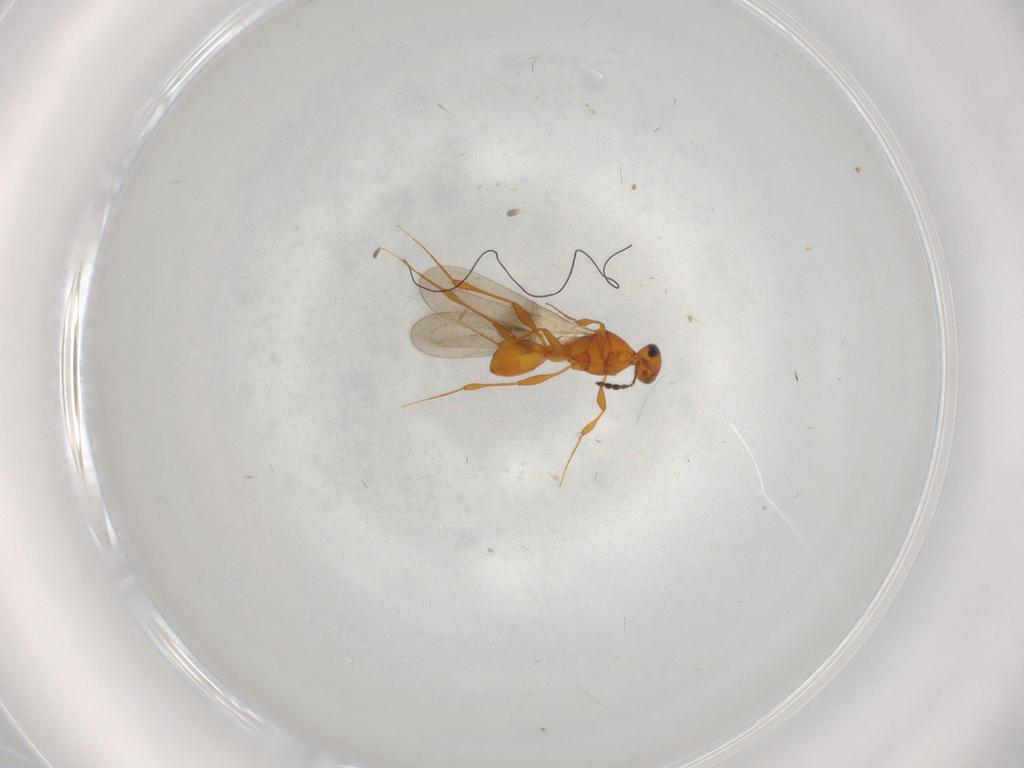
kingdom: Animalia
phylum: Arthropoda
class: Insecta
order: Hymenoptera
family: Platygastridae
